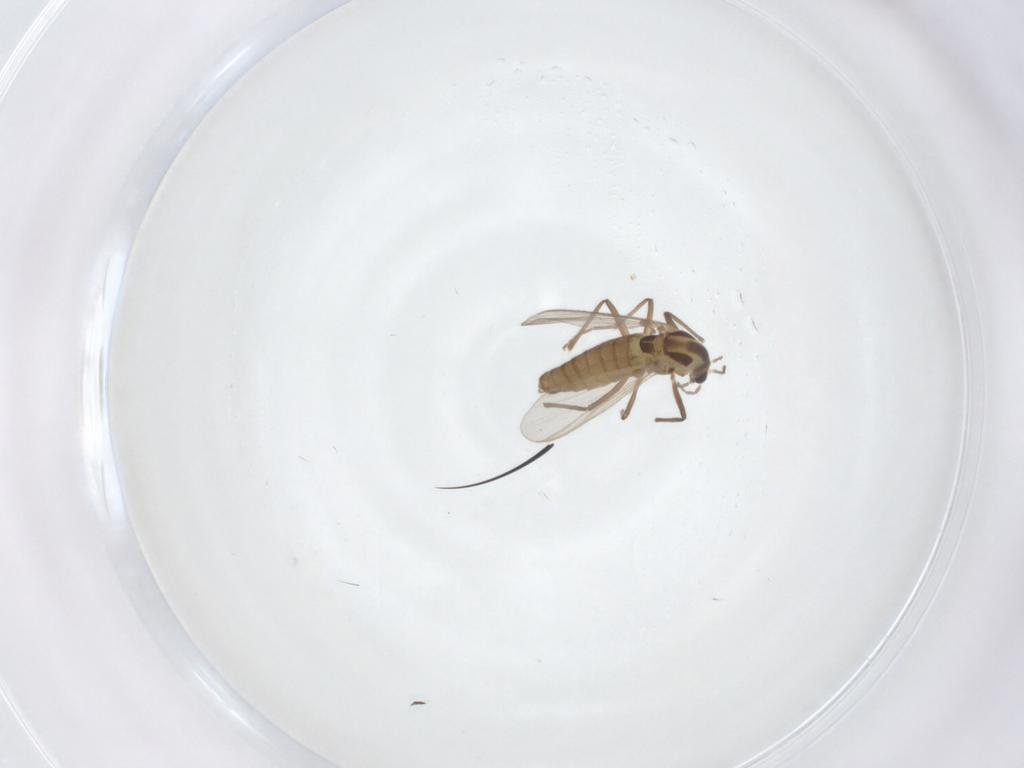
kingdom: Animalia
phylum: Arthropoda
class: Insecta
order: Diptera
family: Chironomidae
